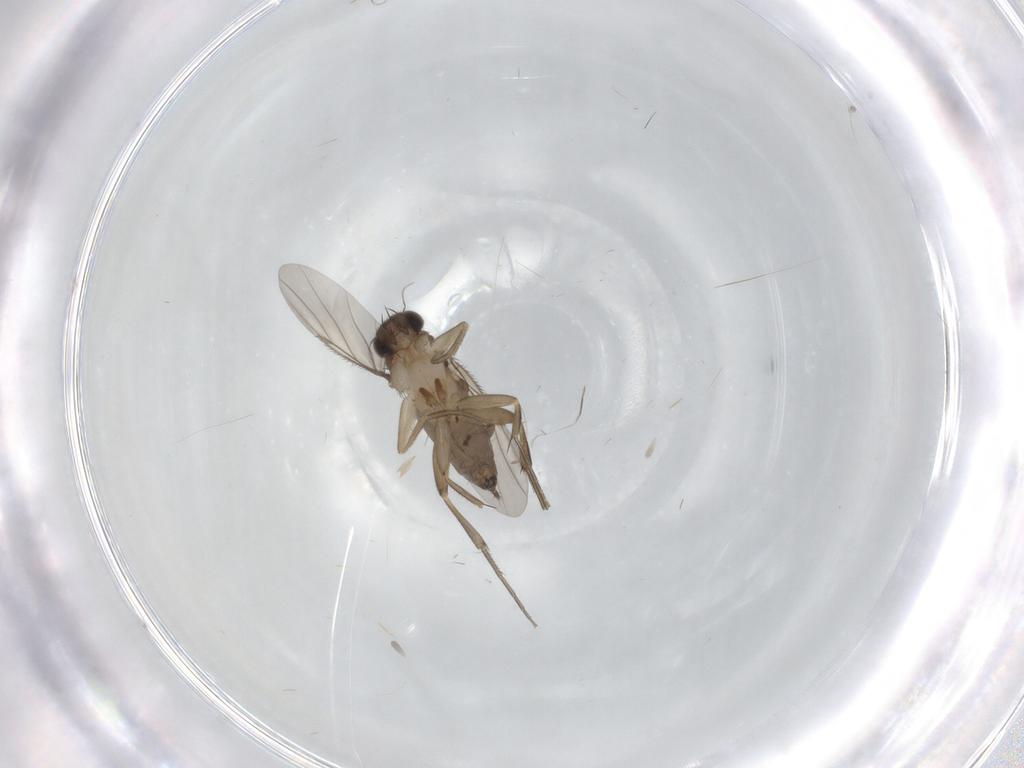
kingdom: Animalia
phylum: Arthropoda
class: Insecta
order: Diptera
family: Phoridae
